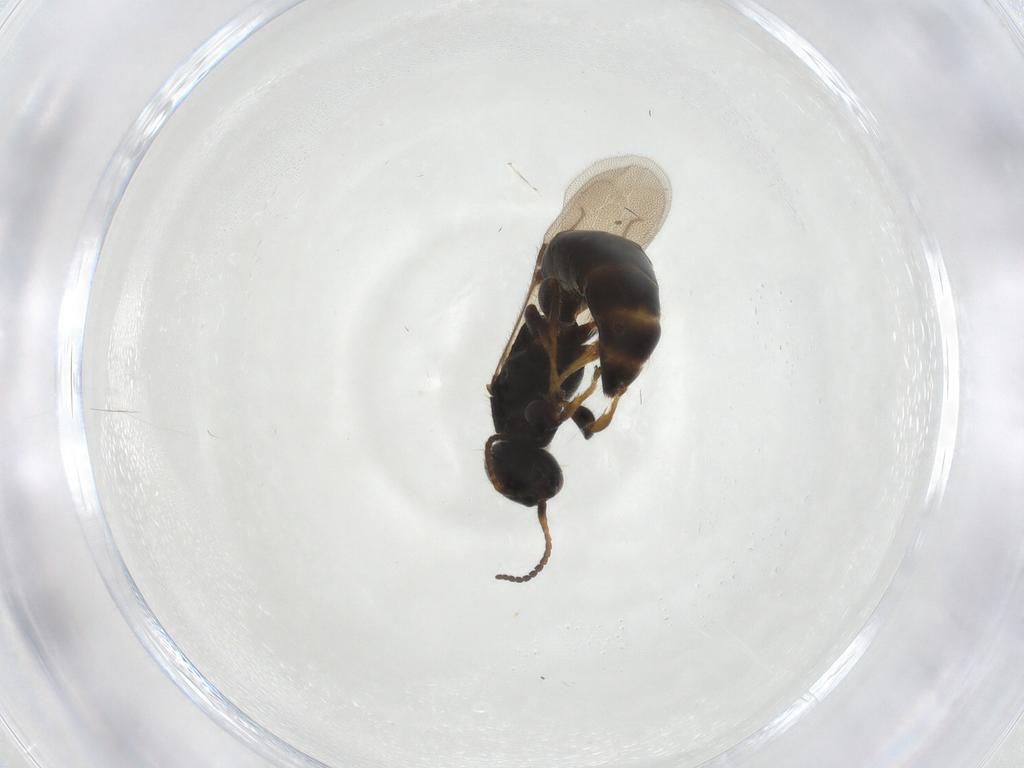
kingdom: Animalia
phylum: Arthropoda
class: Insecta
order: Hymenoptera
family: Bethylidae
